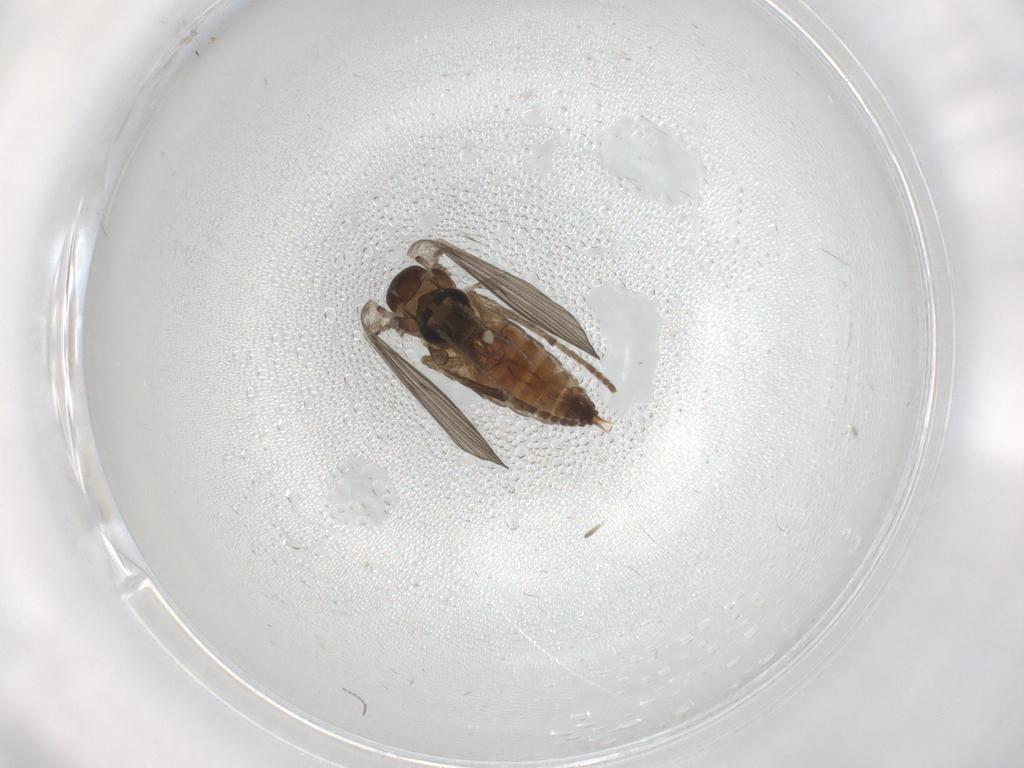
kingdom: Animalia
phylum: Arthropoda
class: Insecta
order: Diptera
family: Psychodidae
